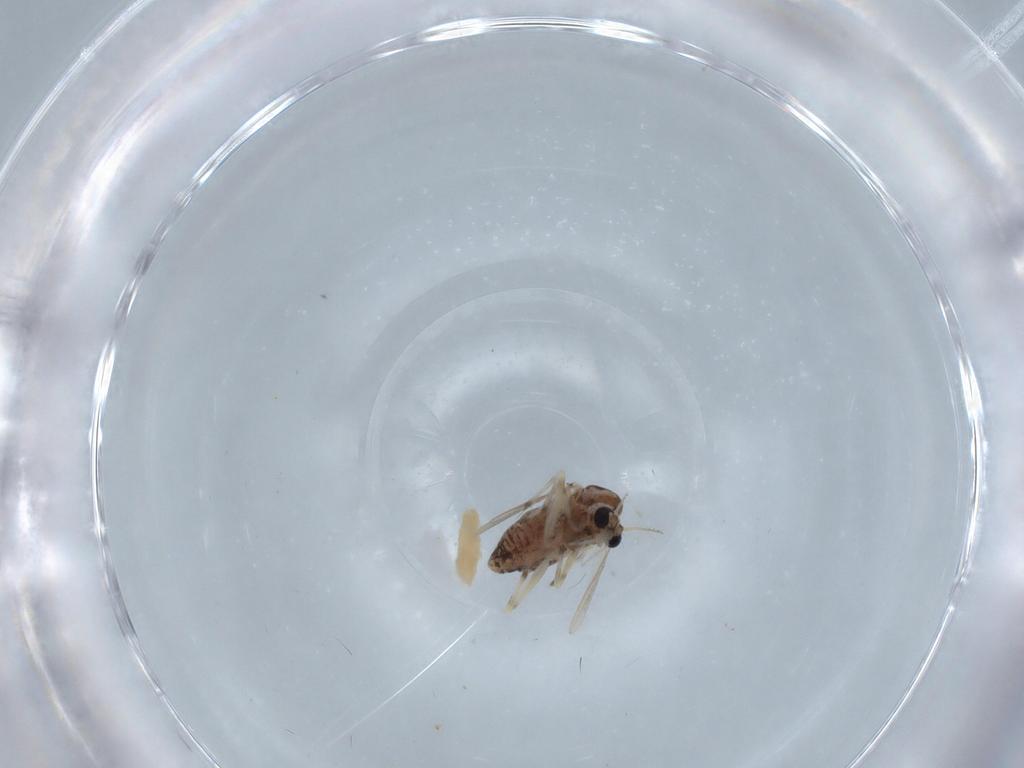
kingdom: Animalia
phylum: Arthropoda
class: Insecta
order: Diptera
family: Chironomidae
